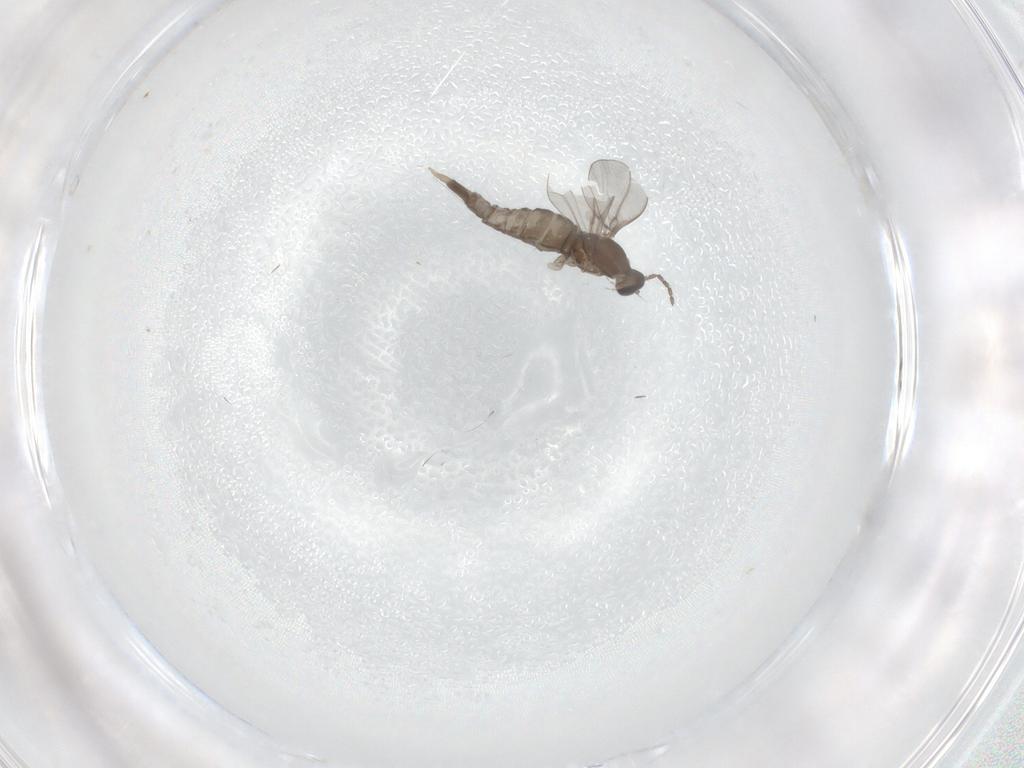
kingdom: Animalia
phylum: Arthropoda
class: Insecta
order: Diptera
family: Cecidomyiidae
